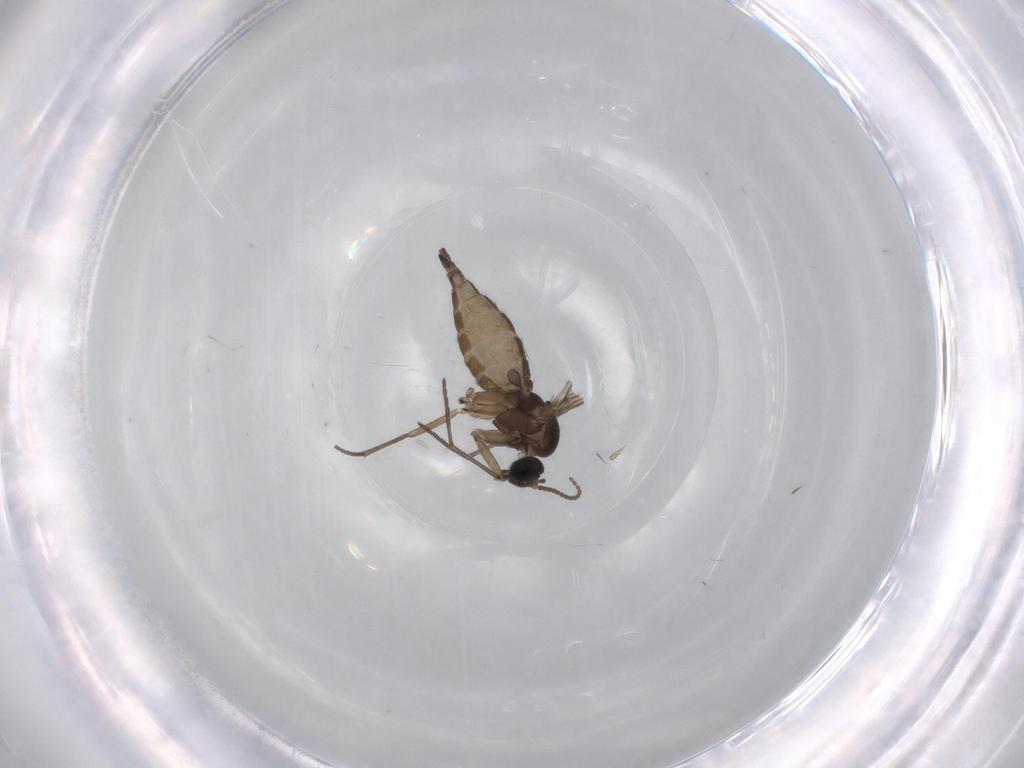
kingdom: Animalia
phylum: Arthropoda
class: Insecta
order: Diptera
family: Sciaridae
